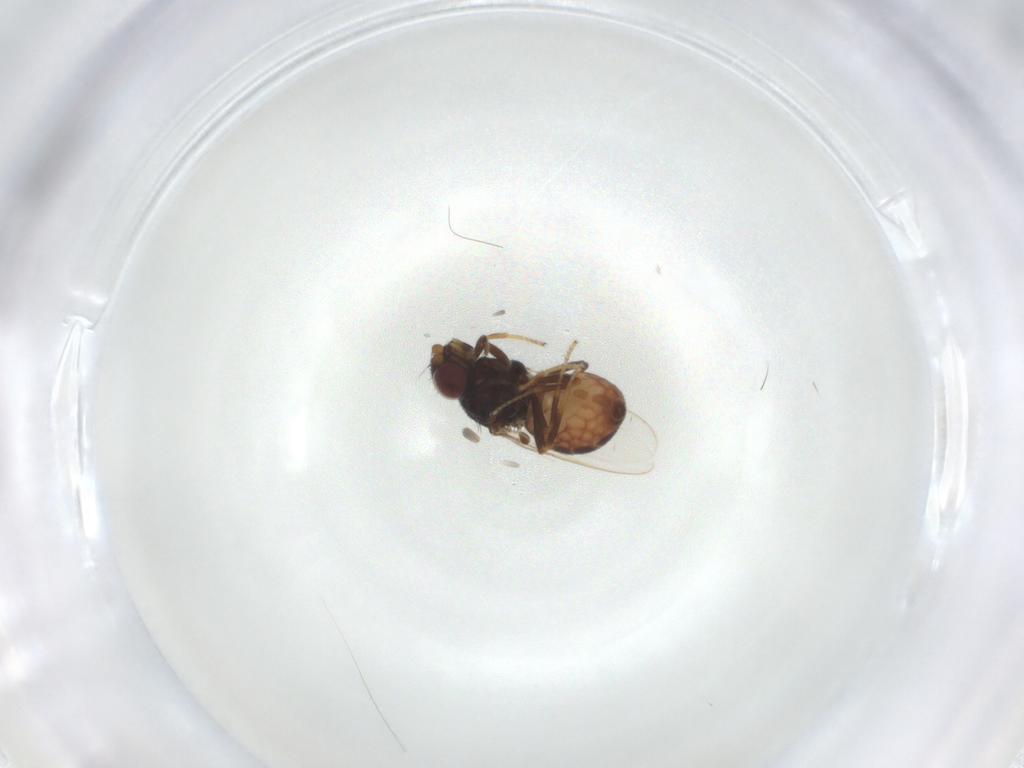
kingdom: Animalia
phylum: Arthropoda
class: Insecta
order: Diptera
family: Chloropidae
